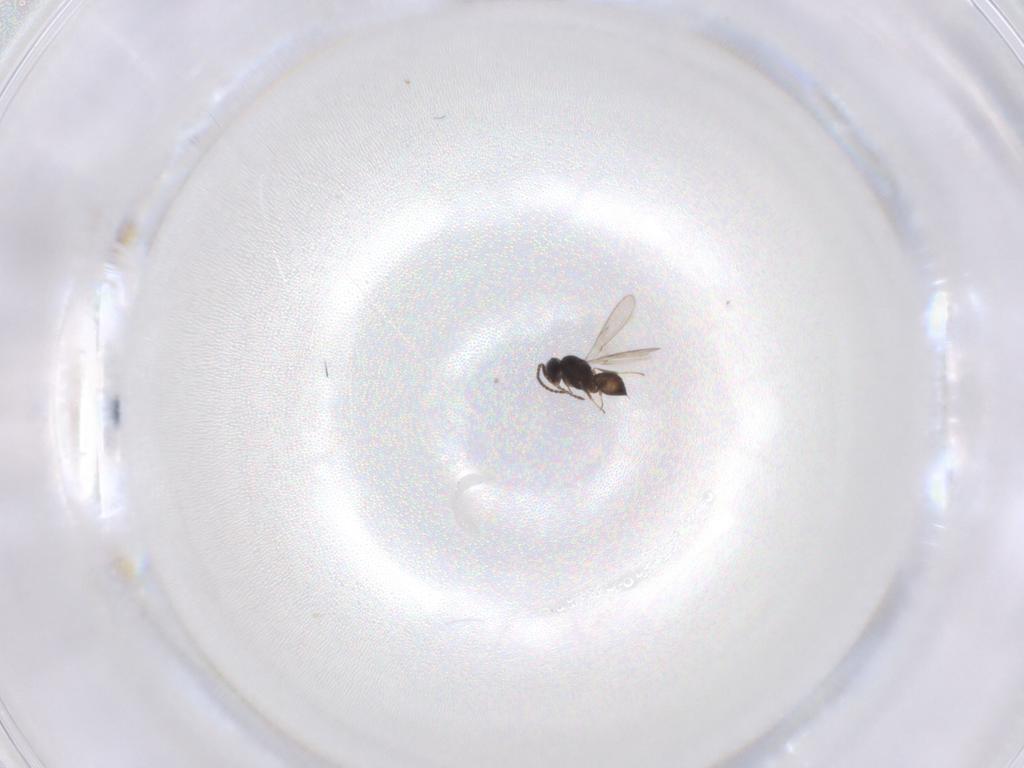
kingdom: Animalia
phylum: Arthropoda
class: Insecta
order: Hymenoptera
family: Scelionidae
